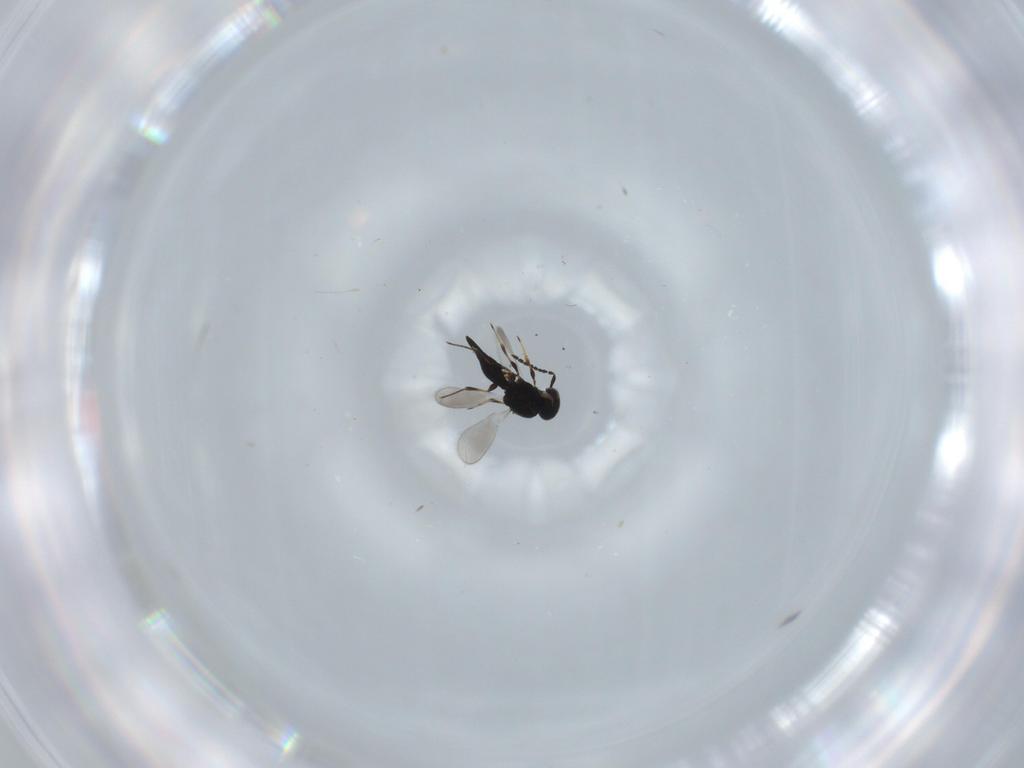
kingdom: Animalia
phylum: Arthropoda
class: Insecta
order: Hymenoptera
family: Platygastridae
